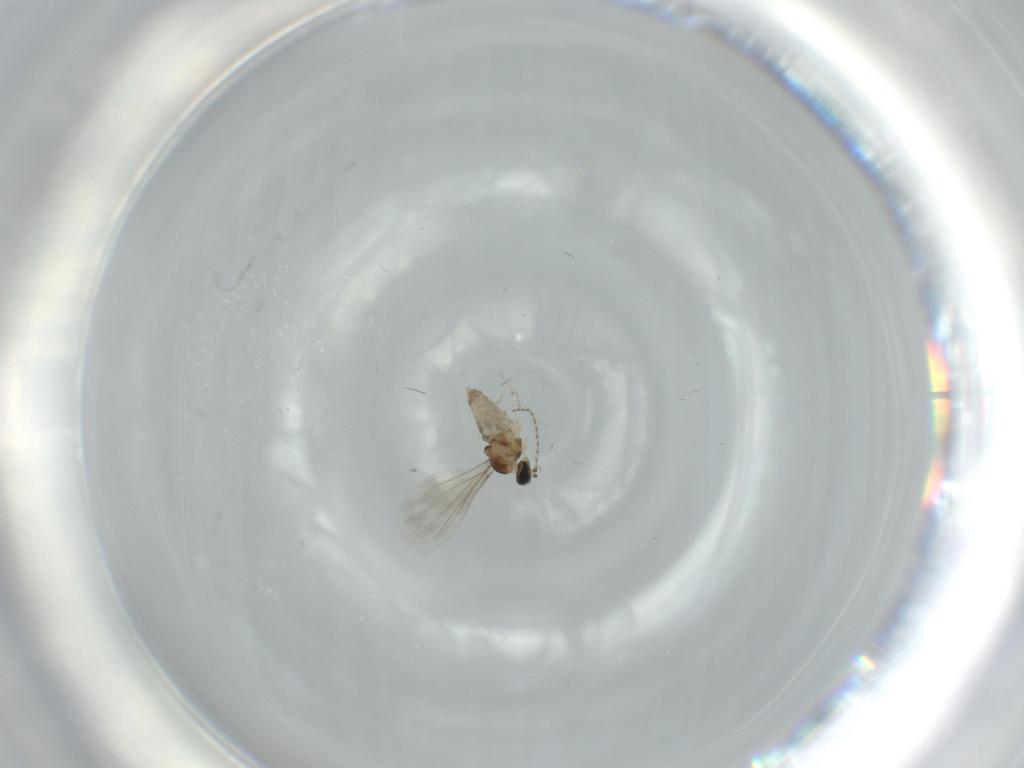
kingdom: Animalia
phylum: Arthropoda
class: Insecta
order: Diptera
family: Cecidomyiidae
